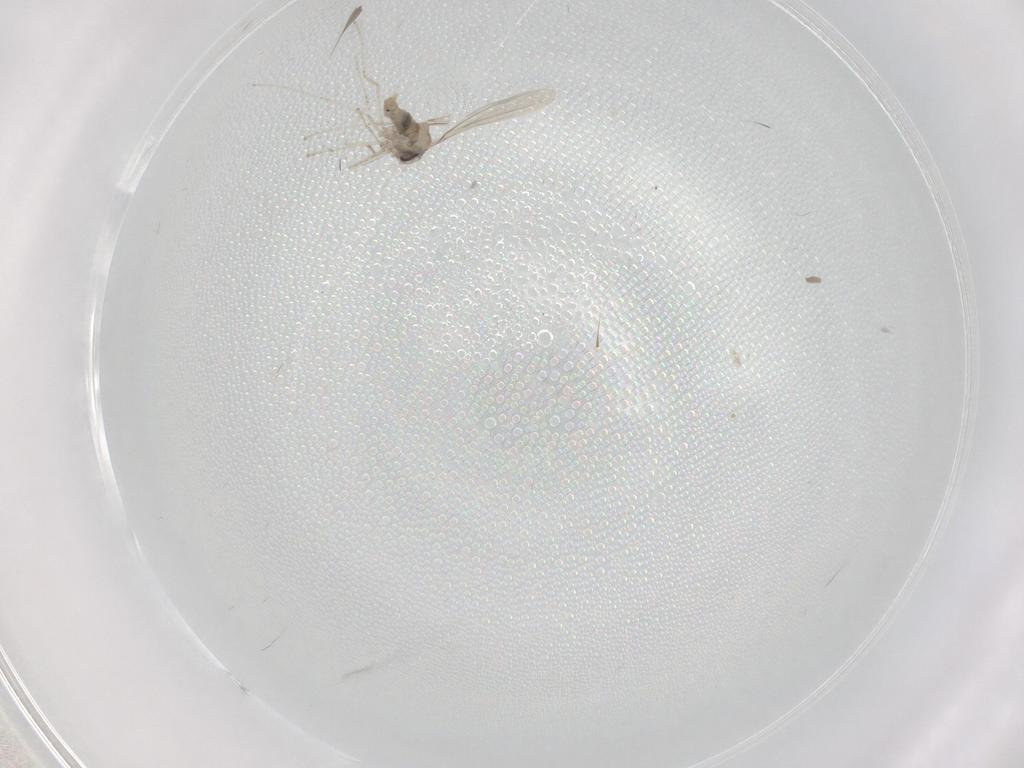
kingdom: Animalia
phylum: Arthropoda
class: Insecta
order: Diptera
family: Cecidomyiidae
